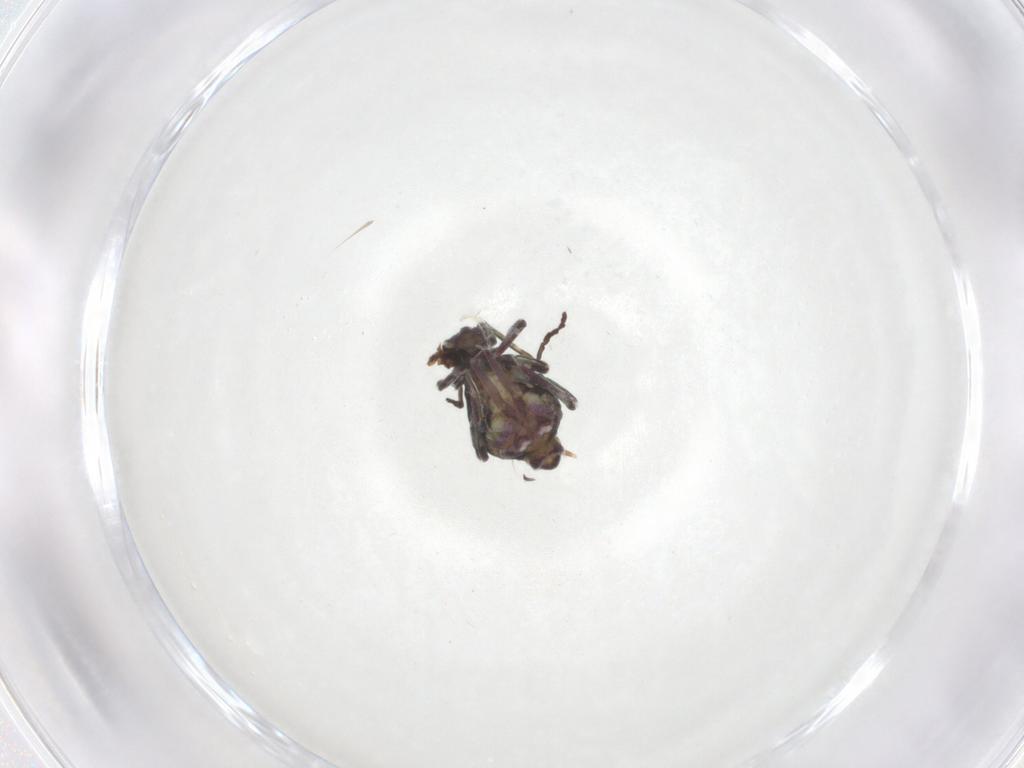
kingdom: Animalia
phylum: Arthropoda
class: Collembola
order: Symphypleona
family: Dicyrtomidae
